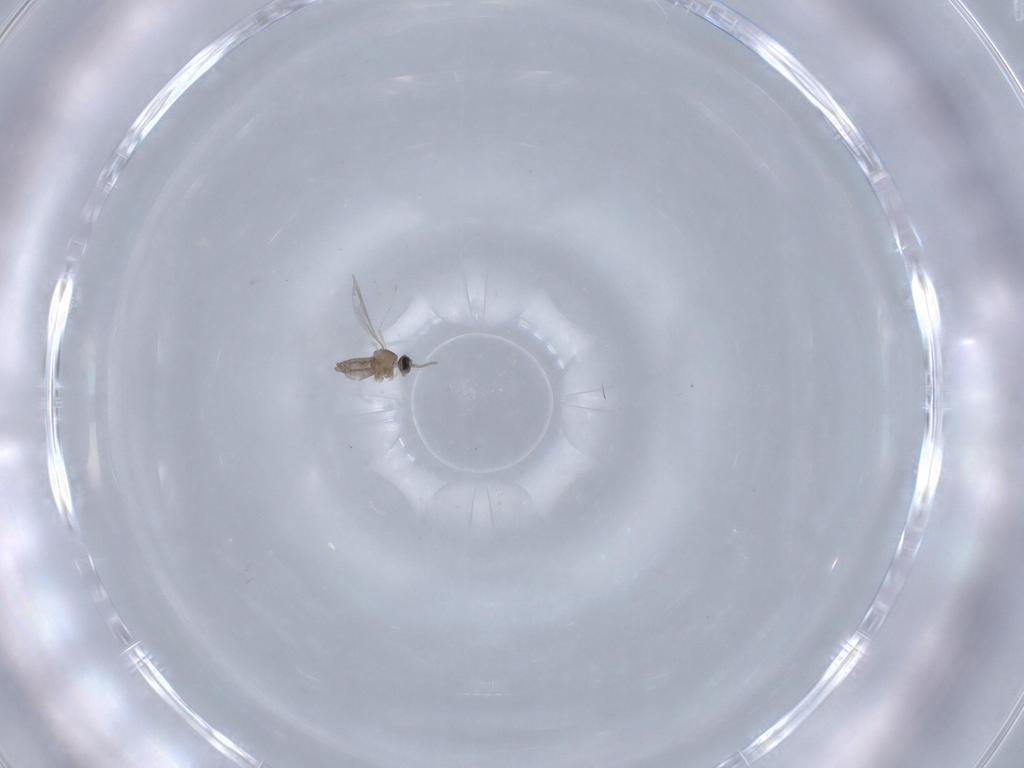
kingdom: Animalia
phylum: Arthropoda
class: Insecta
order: Diptera
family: Cecidomyiidae
